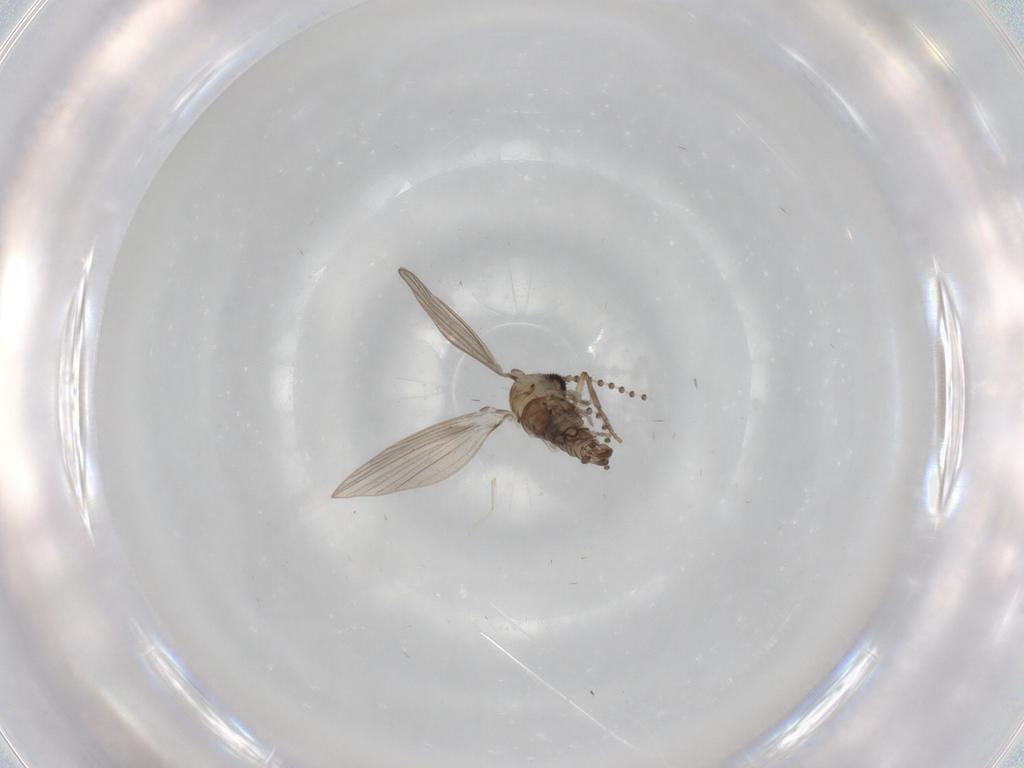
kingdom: Animalia
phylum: Arthropoda
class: Insecta
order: Diptera
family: Psychodidae
